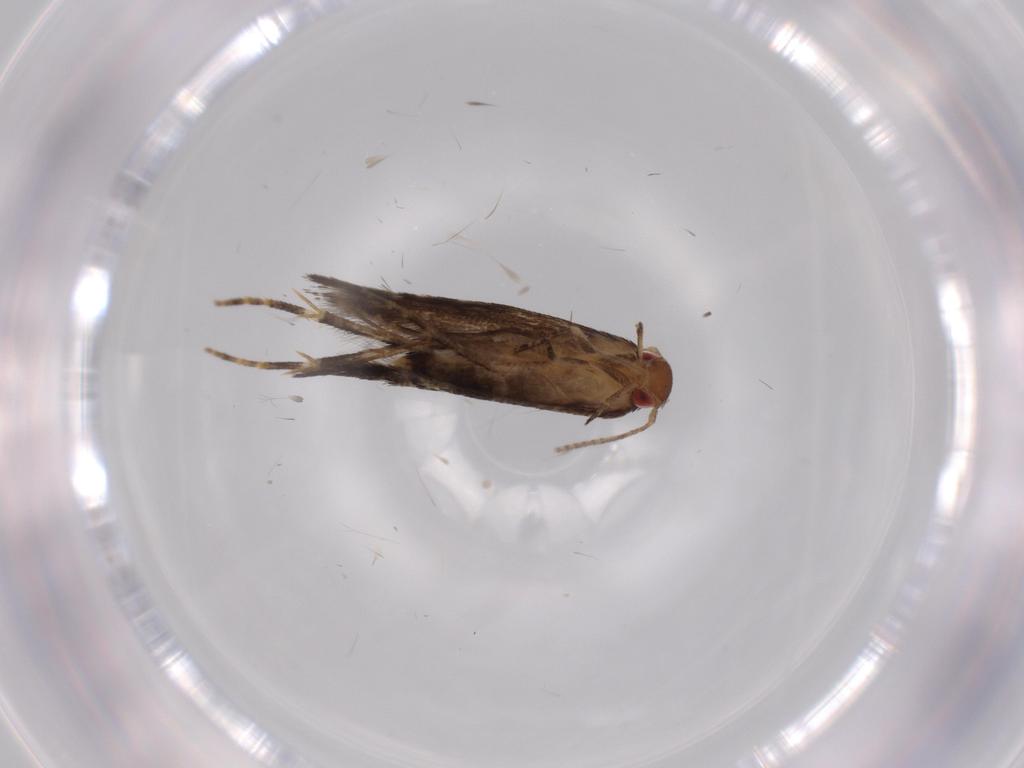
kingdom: Animalia
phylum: Arthropoda
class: Insecta
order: Lepidoptera
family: Momphidae
